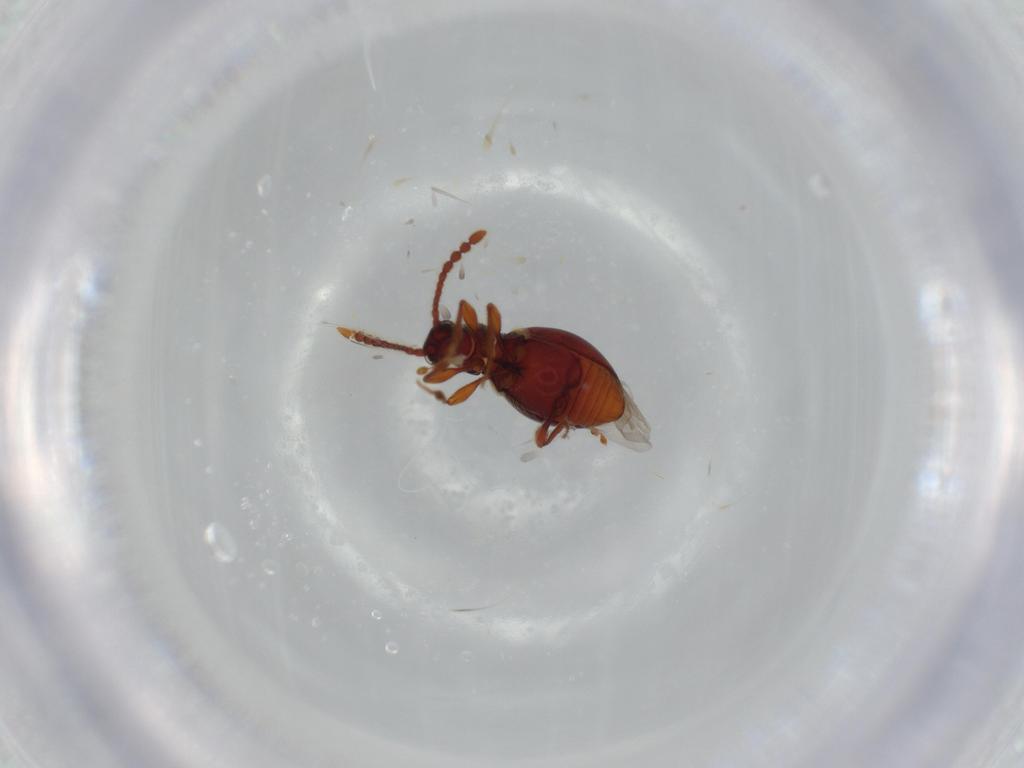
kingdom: Animalia
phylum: Arthropoda
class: Insecta
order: Coleoptera
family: Staphylinidae
